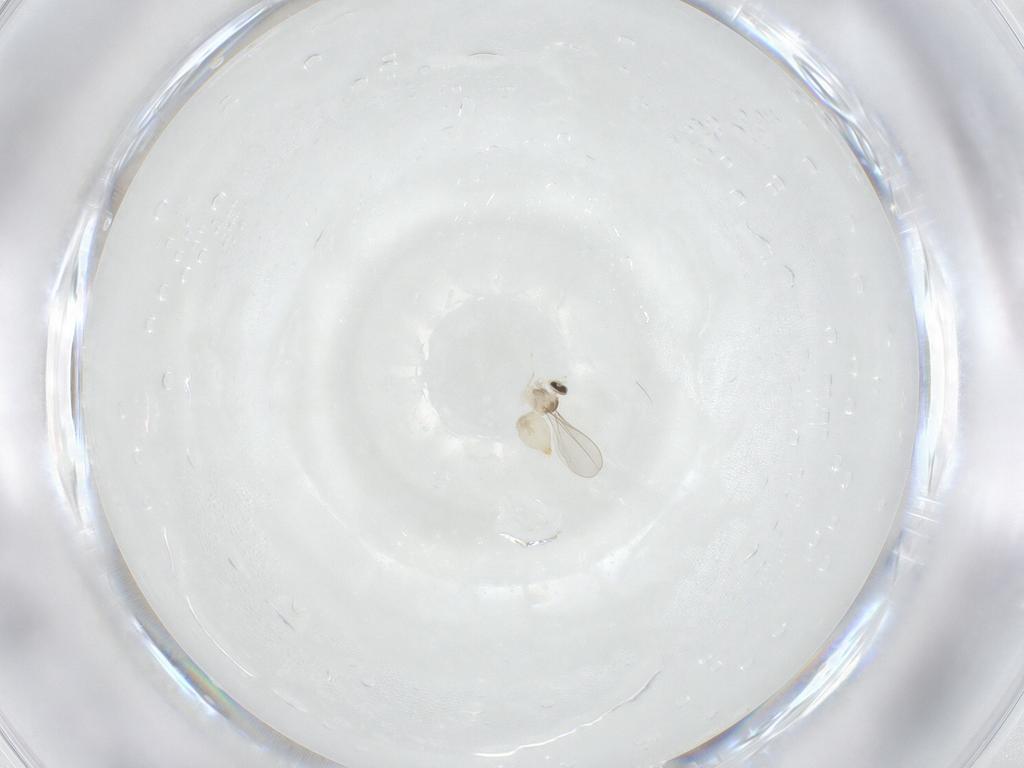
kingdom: Animalia
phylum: Arthropoda
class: Insecta
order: Diptera
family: Cecidomyiidae
